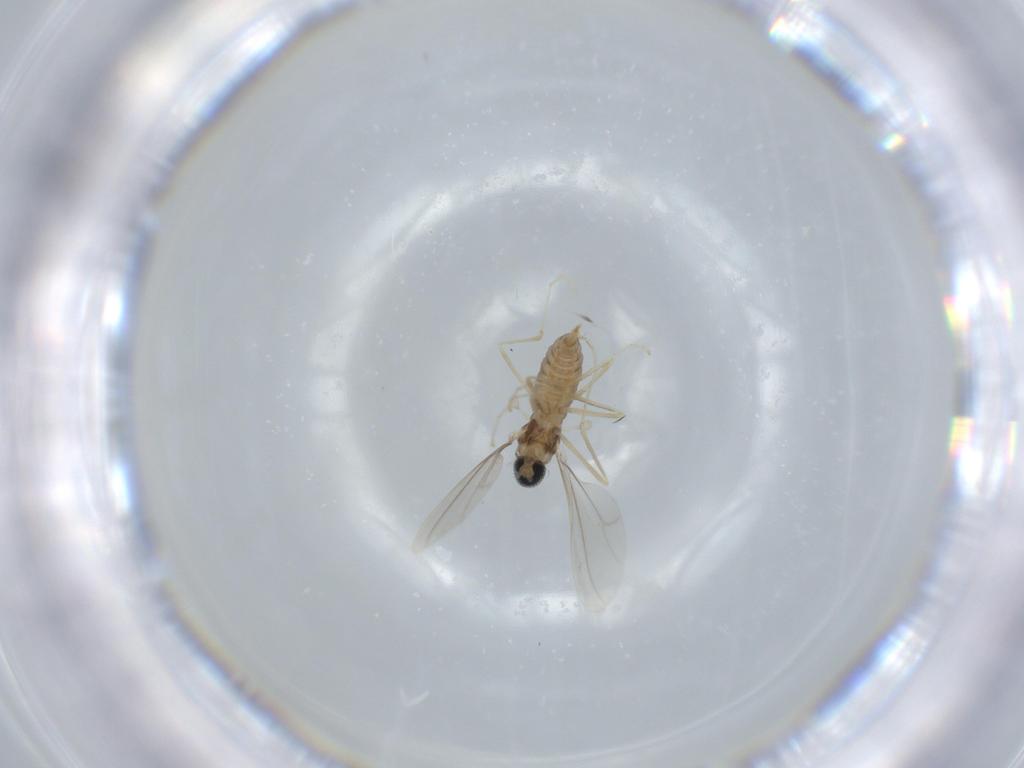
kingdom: Animalia
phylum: Arthropoda
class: Insecta
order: Diptera
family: Cecidomyiidae
